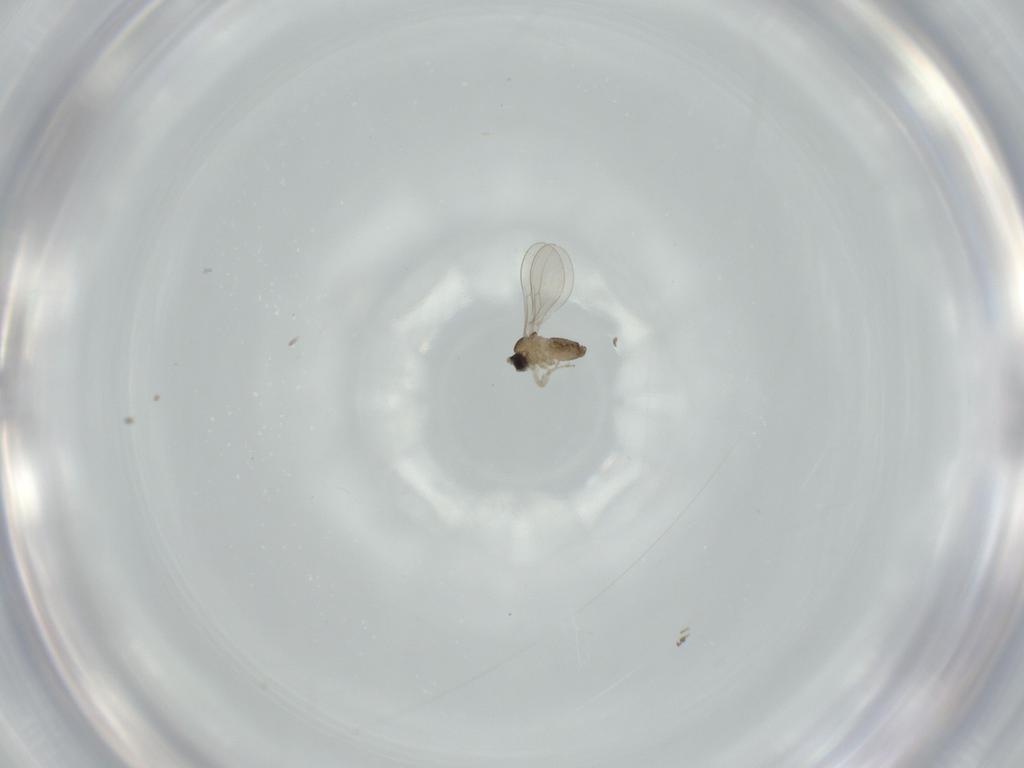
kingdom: Animalia
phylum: Arthropoda
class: Insecta
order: Diptera
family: Cecidomyiidae
